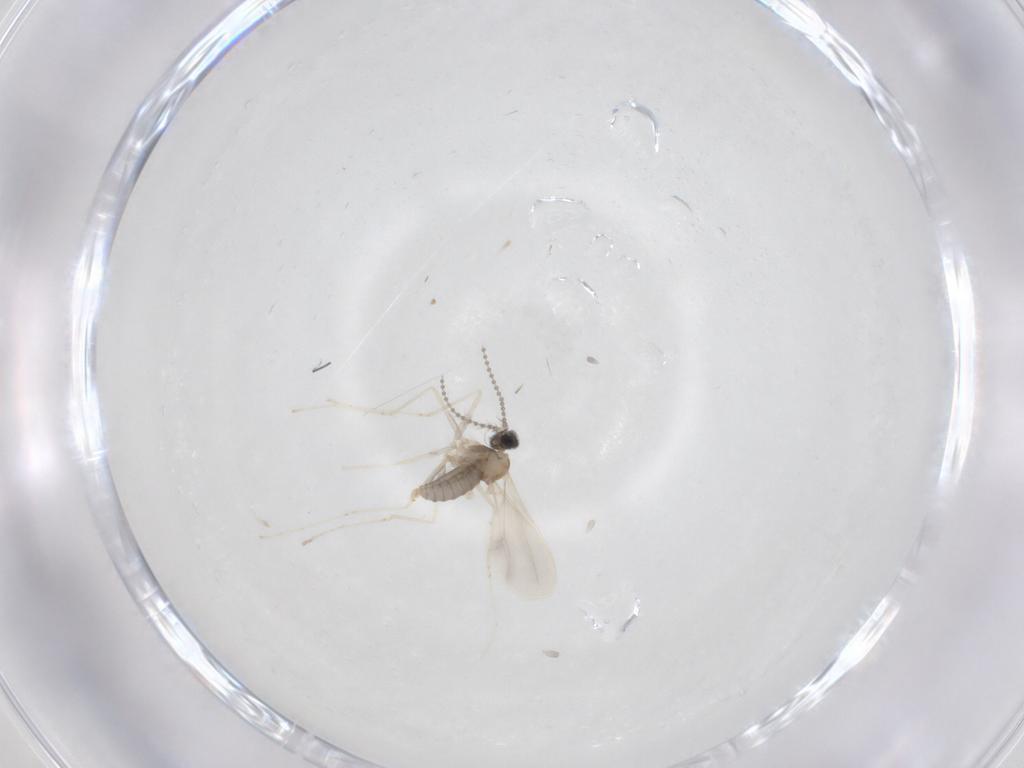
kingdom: Animalia
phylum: Arthropoda
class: Insecta
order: Diptera
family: Cecidomyiidae
